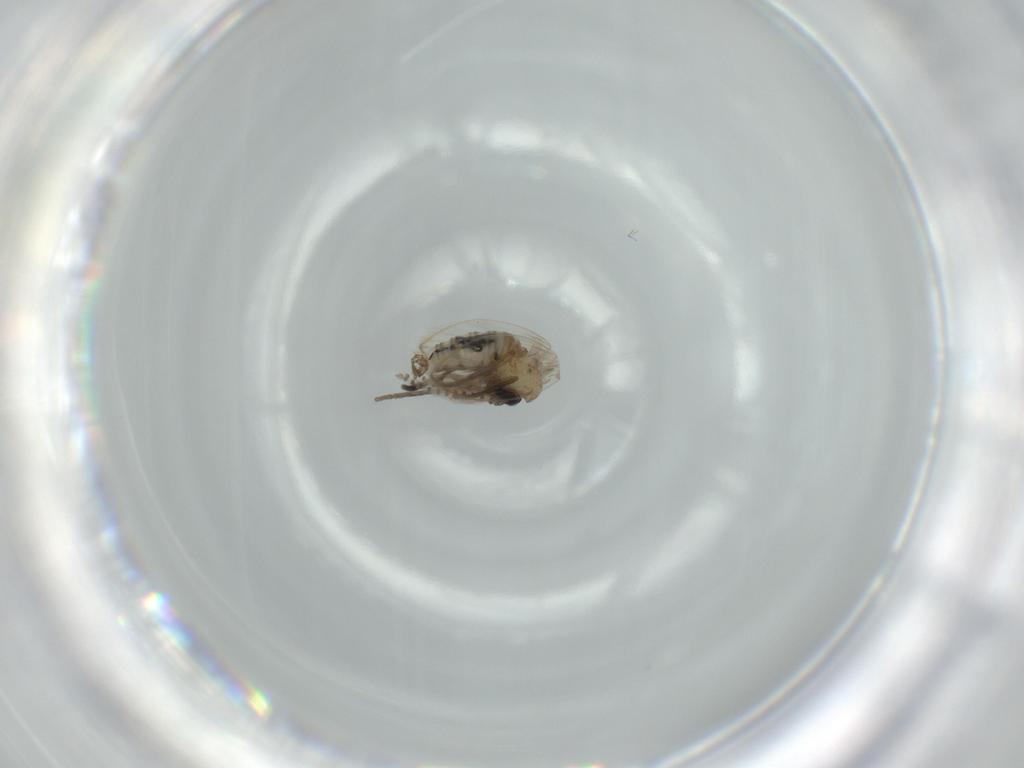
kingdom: Animalia
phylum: Arthropoda
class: Insecta
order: Diptera
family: Psychodidae
